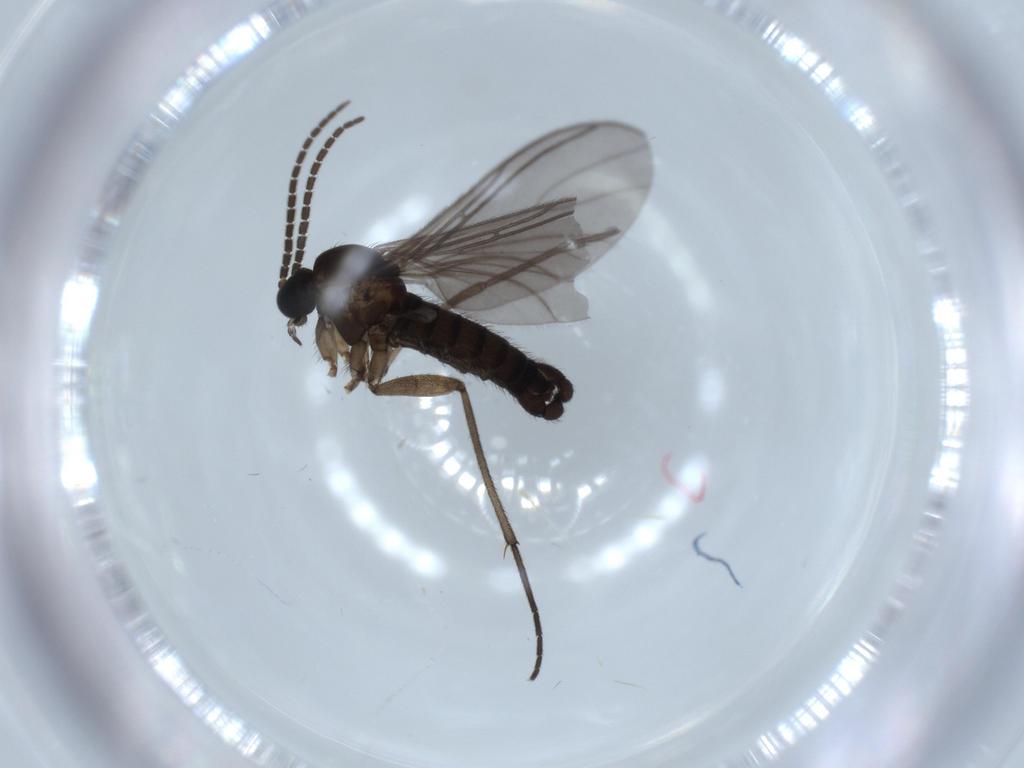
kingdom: Animalia
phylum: Arthropoda
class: Insecta
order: Diptera
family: Sciaridae
